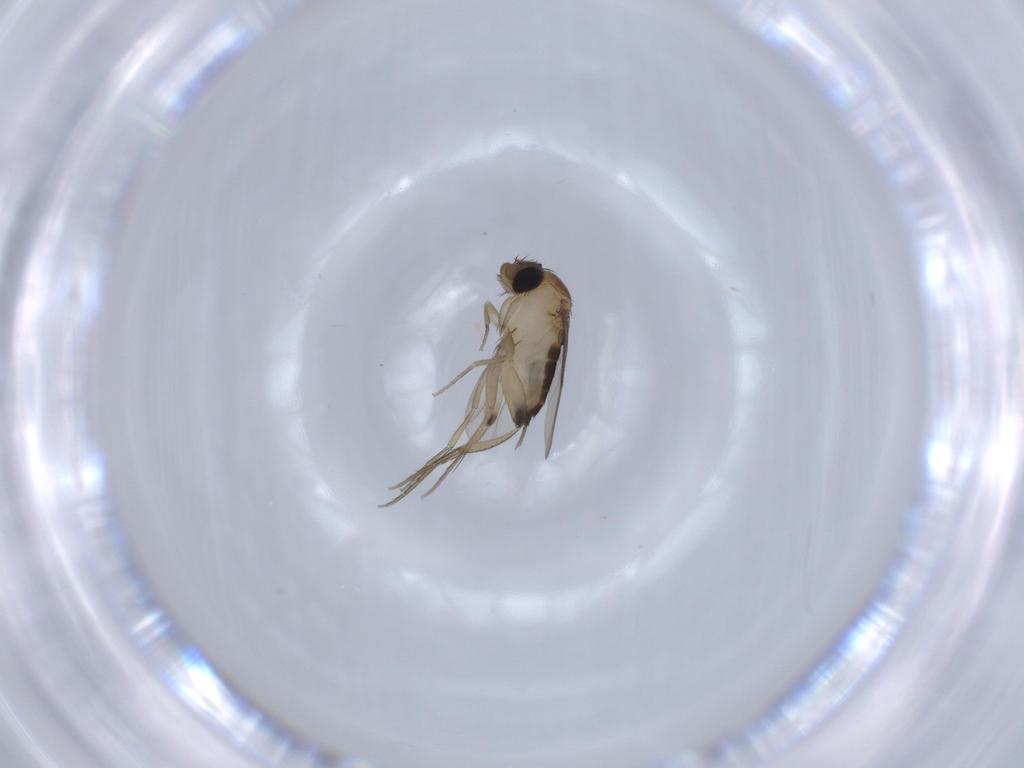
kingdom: Animalia
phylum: Arthropoda
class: Insecta
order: Diptera
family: Phoridae
